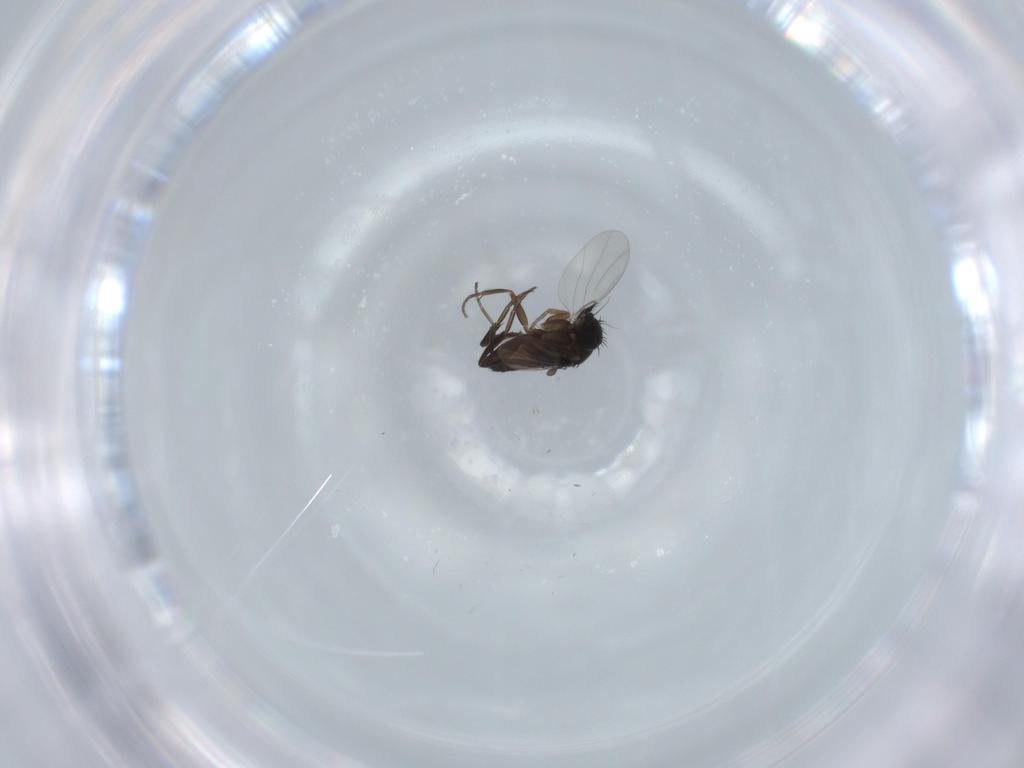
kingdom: Animalia
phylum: Arthropoda
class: Insecta
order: Diptera
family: Phoridae
